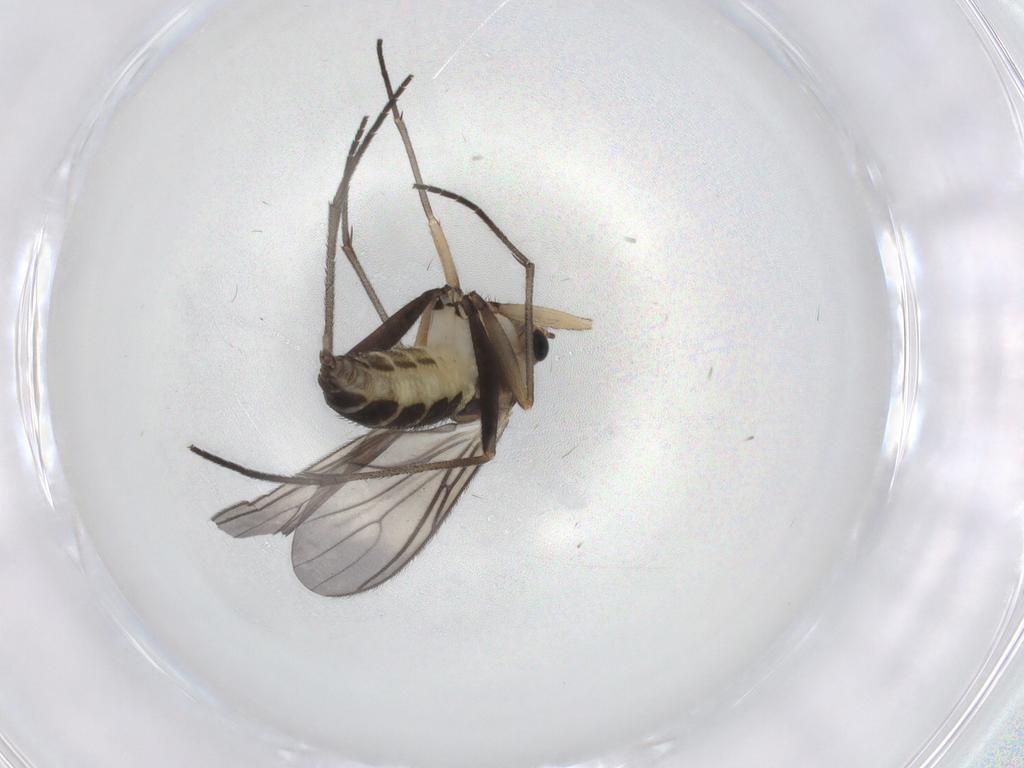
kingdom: Animalia
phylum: Arthropoda
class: Insecta
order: Diptera
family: Sciaridae
